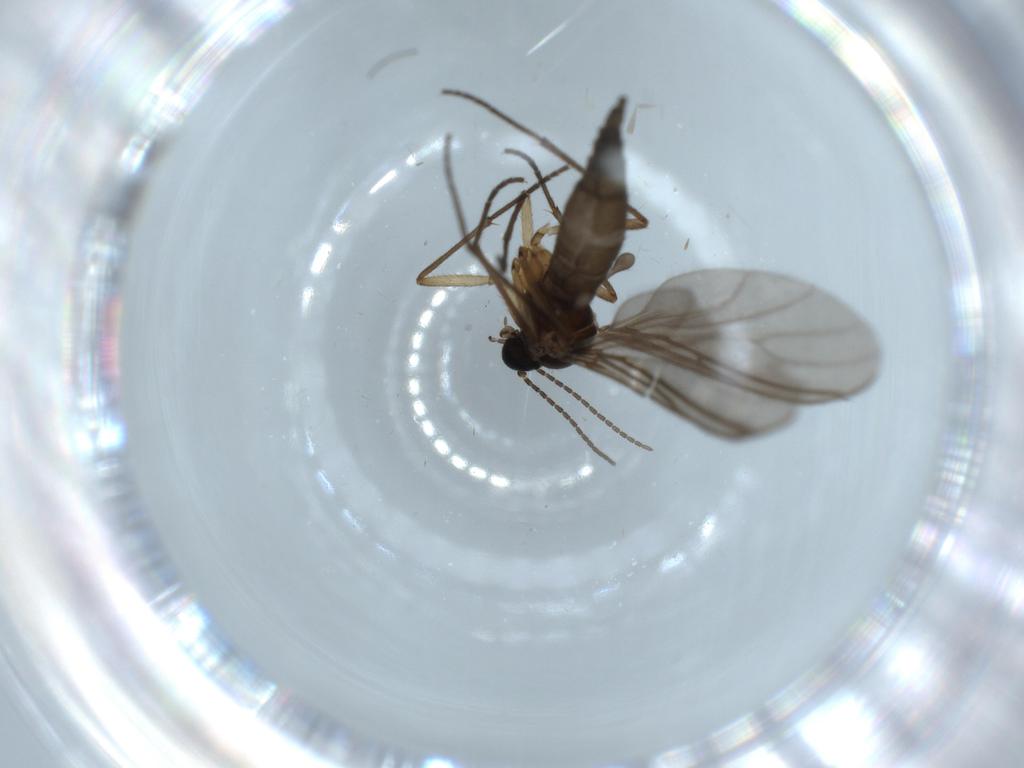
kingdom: Animalia
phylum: Arthropoda
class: Insecta
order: Diptera
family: Cecidomyiidae
